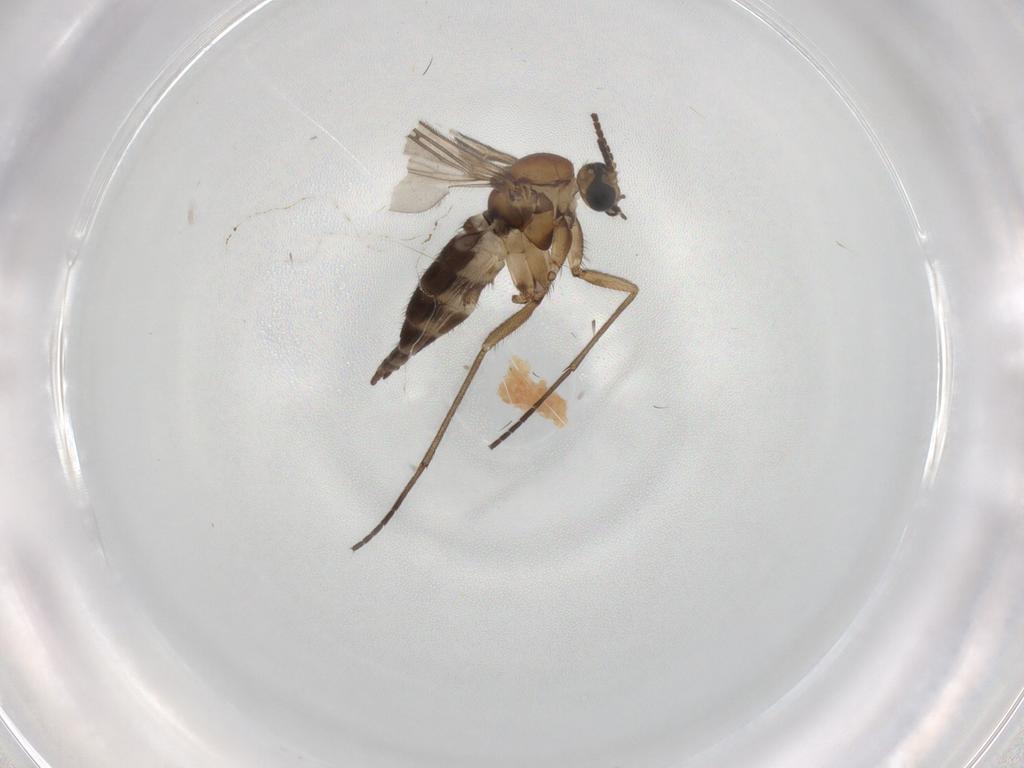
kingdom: Animalia
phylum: Arthropoda
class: Insecta
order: Diptera
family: Sciaridae
